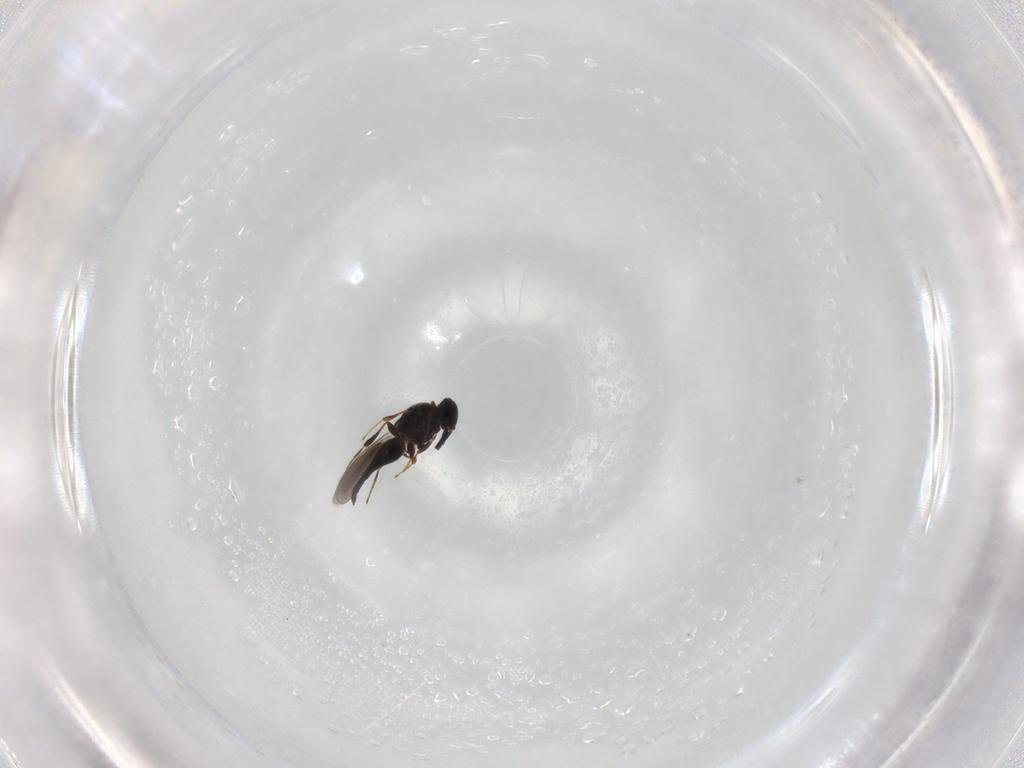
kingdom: Animalia
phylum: Arthropoda
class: Insecta
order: Hymenoptera
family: Platygastridae
